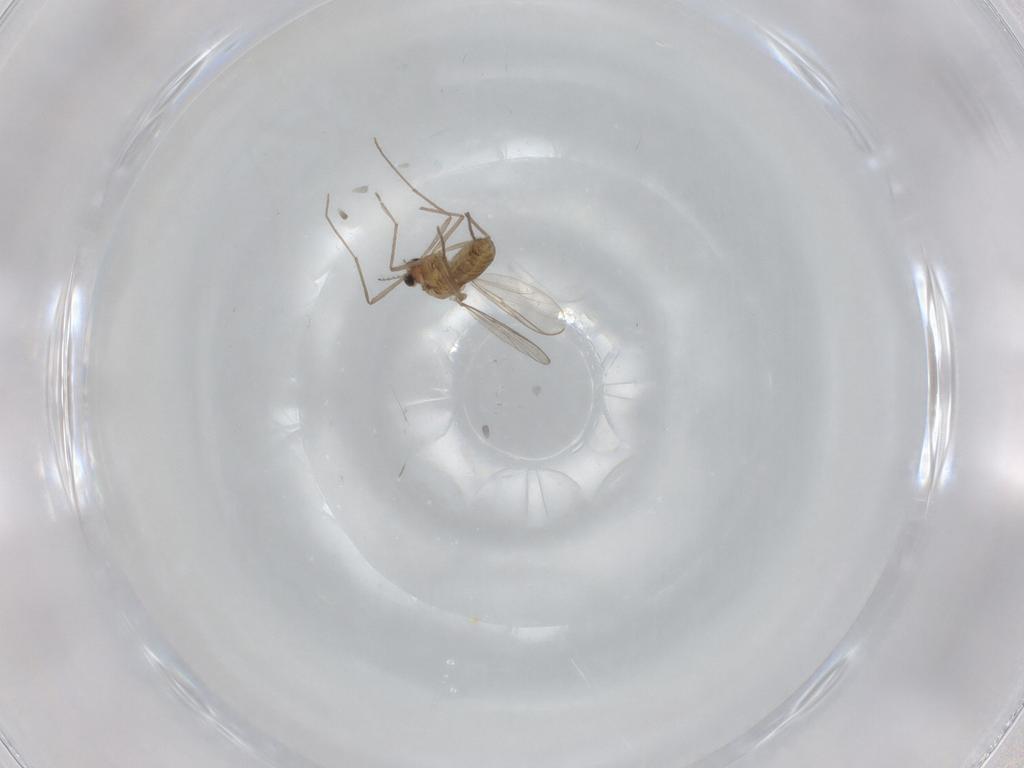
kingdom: Animalia
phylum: Arthropoda
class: Insecta
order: Diptera
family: Chironomidae
